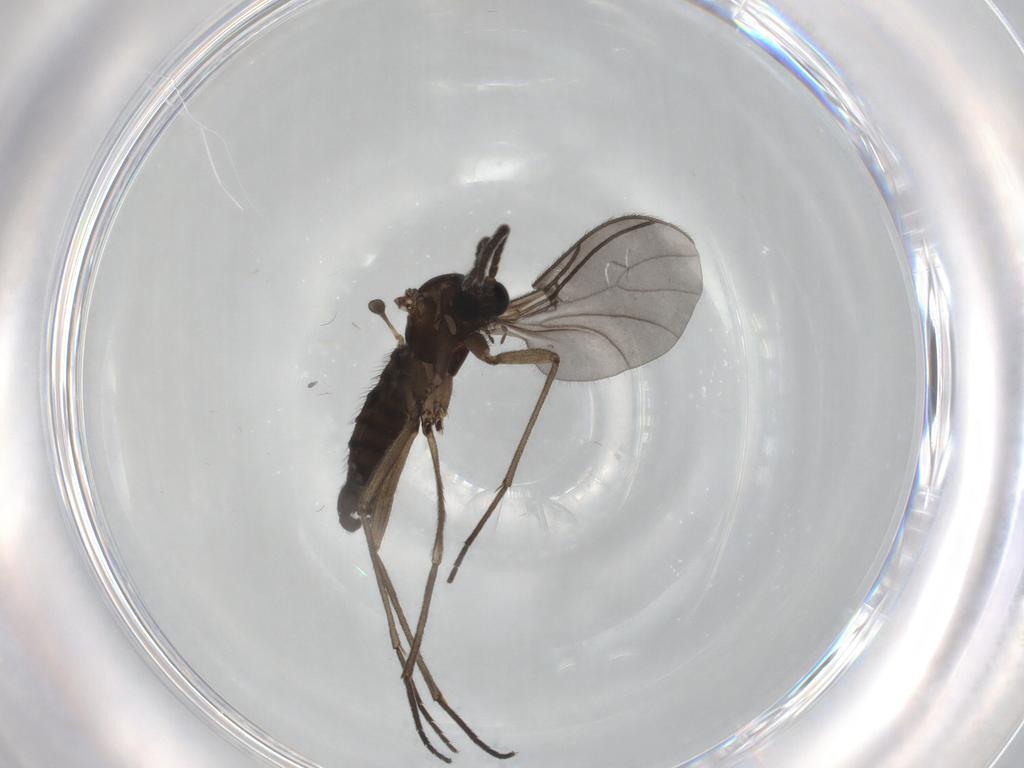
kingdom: Animalia
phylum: Arthropoda
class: Insecta
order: Diptera
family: Sciaridae
